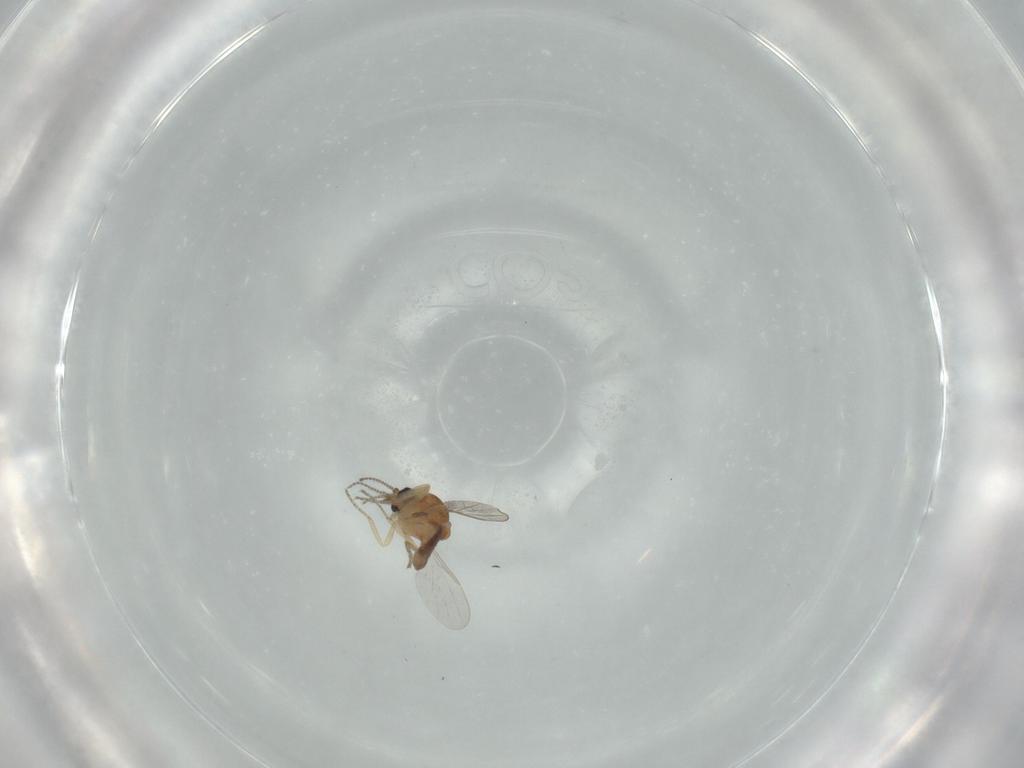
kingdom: Animalia
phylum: Arthropoda
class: Insecta
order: Diptera
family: Ceratopogonidae
